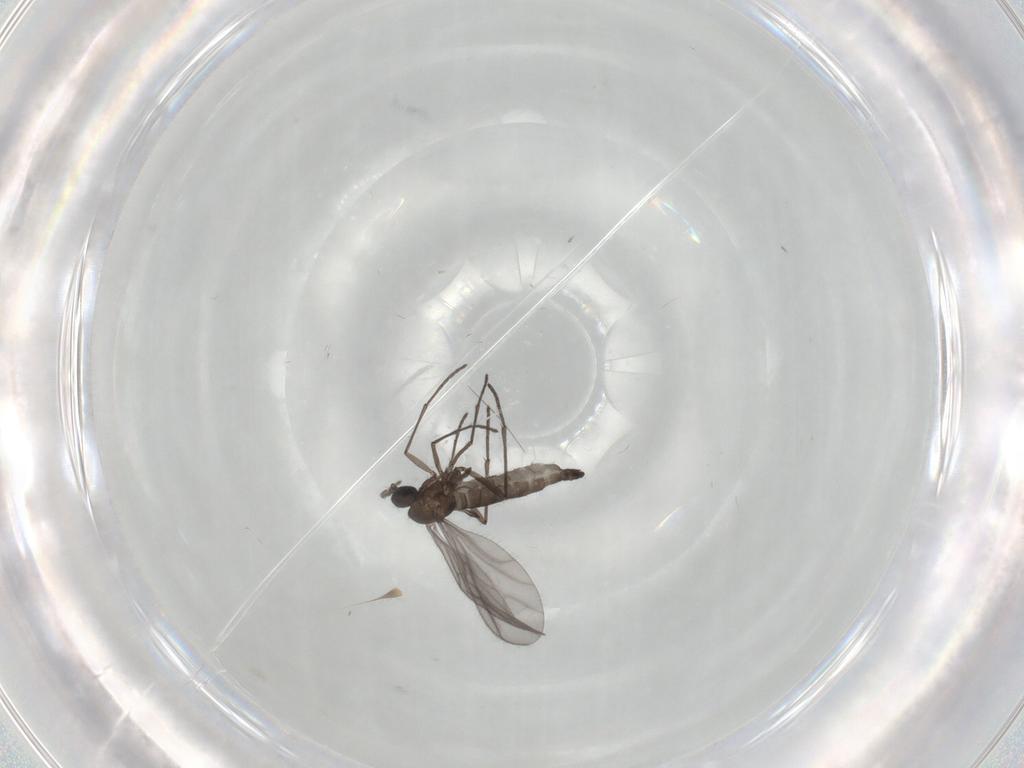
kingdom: Animalia
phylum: Arthropoda
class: Insecta
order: Diptera
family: Sciaridae
